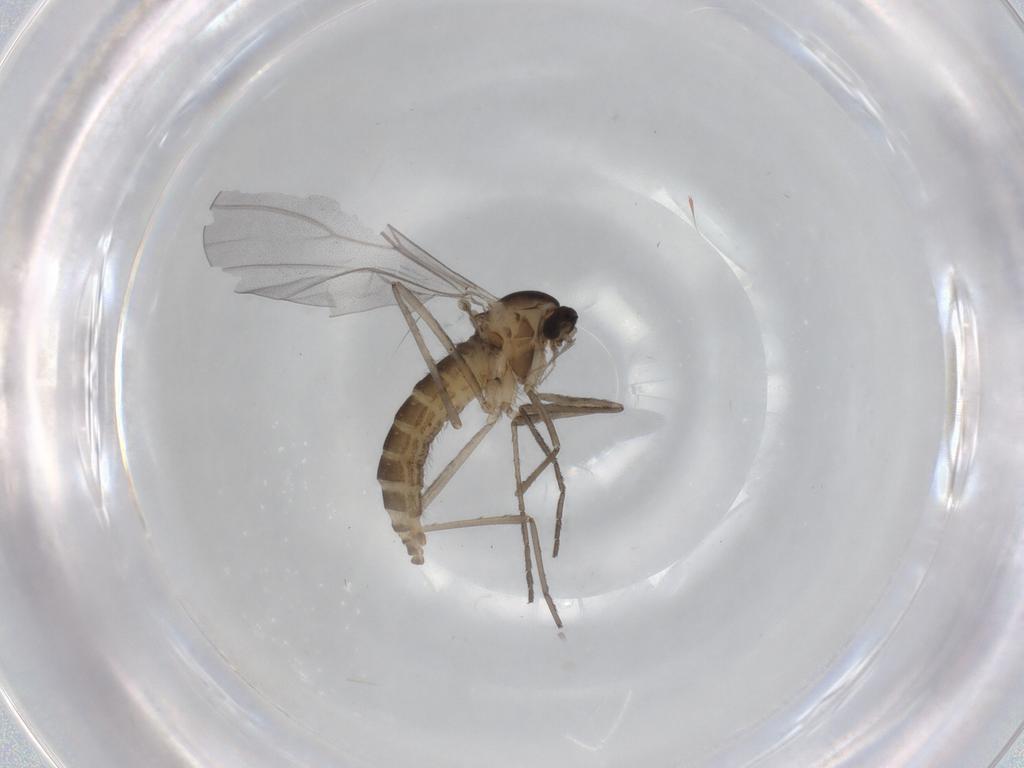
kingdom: Animalia
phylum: Arthropoda
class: Insecta
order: Diptera
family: Cecidomyiidae
